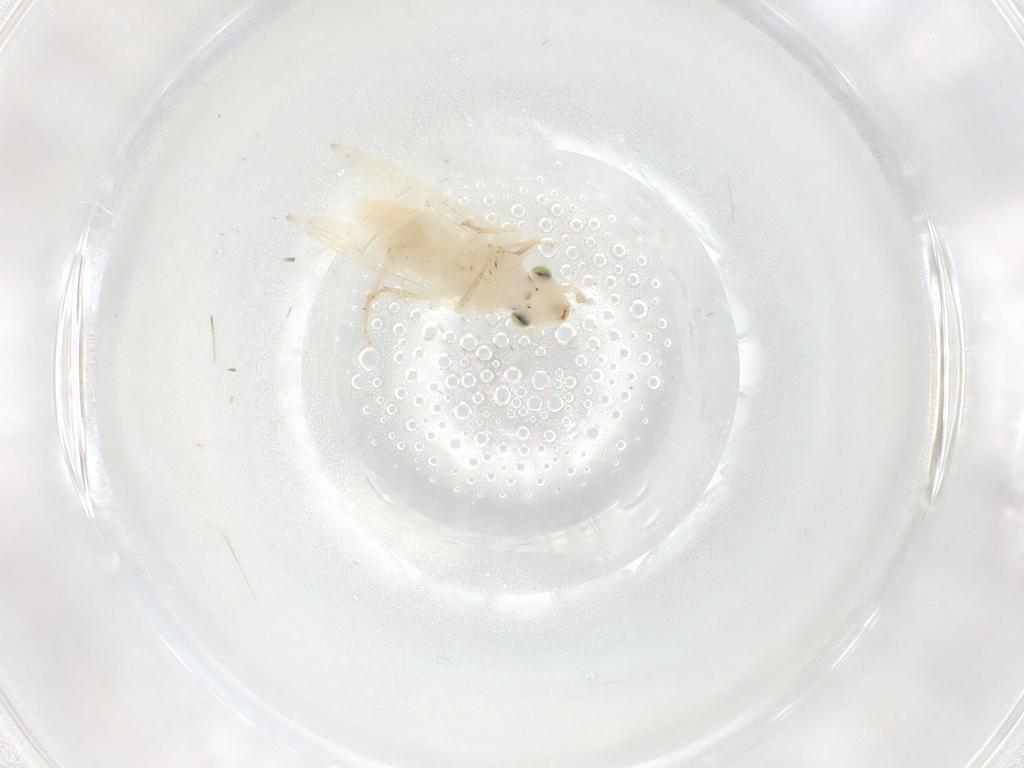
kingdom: Animalia
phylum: Arthropoda
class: Insecta
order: Psocodea
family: Lepidopsocidae
